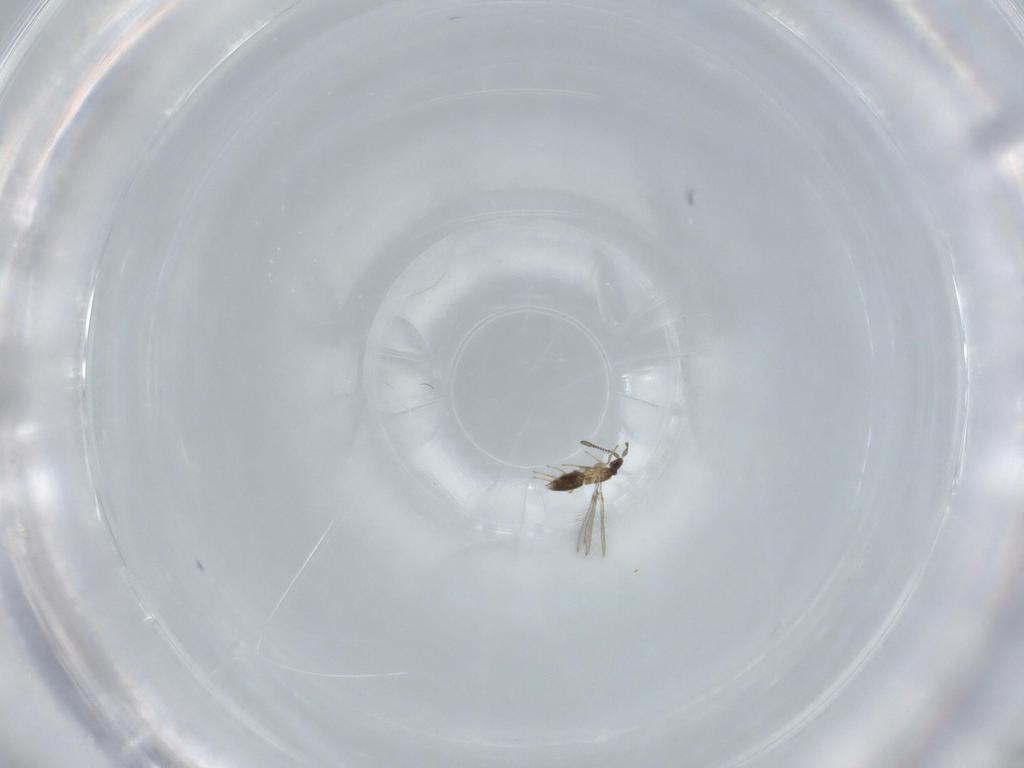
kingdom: Animalia
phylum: Arthropoda
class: Insecta
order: Hymenoptera
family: Mymaridae
